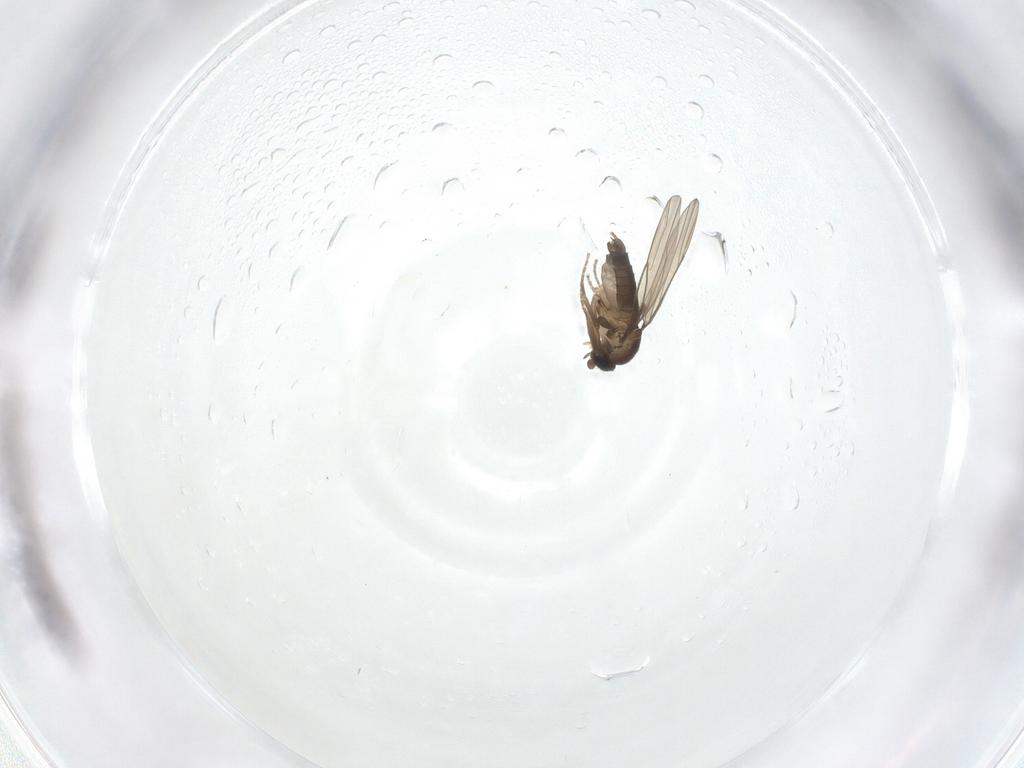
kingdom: Animalia
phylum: Arthropoda
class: Insecta
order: Diptera
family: Phoridae
